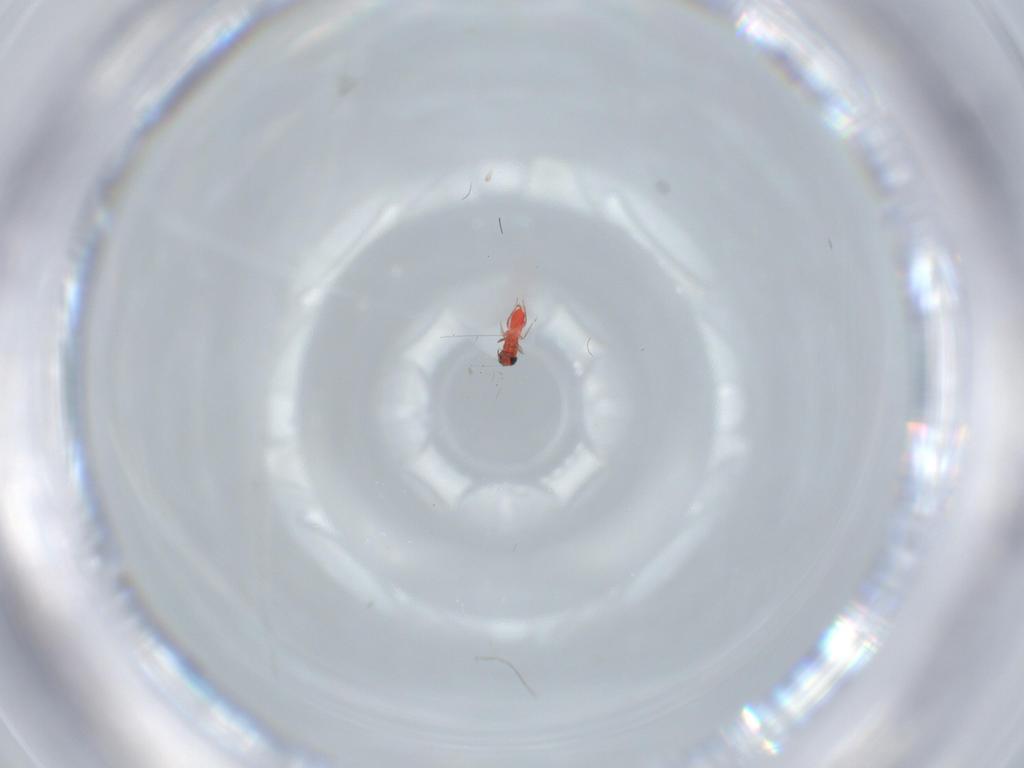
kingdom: Animalia
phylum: Arthropoda
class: Insecta
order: Hymenoptera
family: Trichogrammatidae
